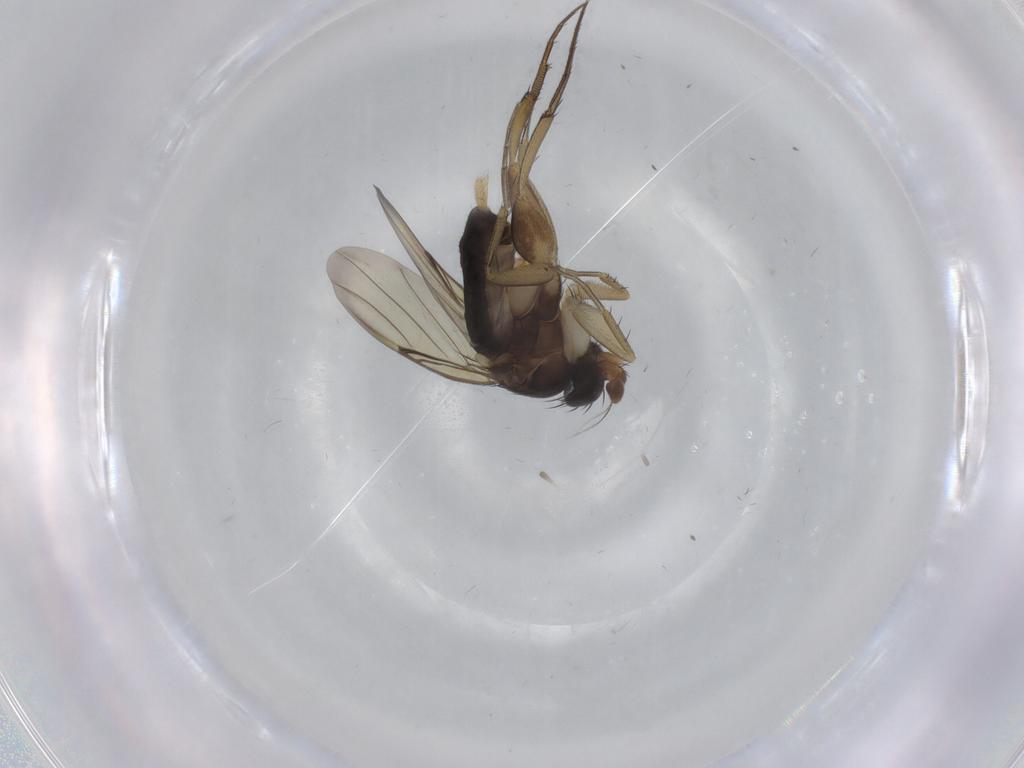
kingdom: Animalia
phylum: Arthropoda
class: Insecta
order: Diptera
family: Phoridae
